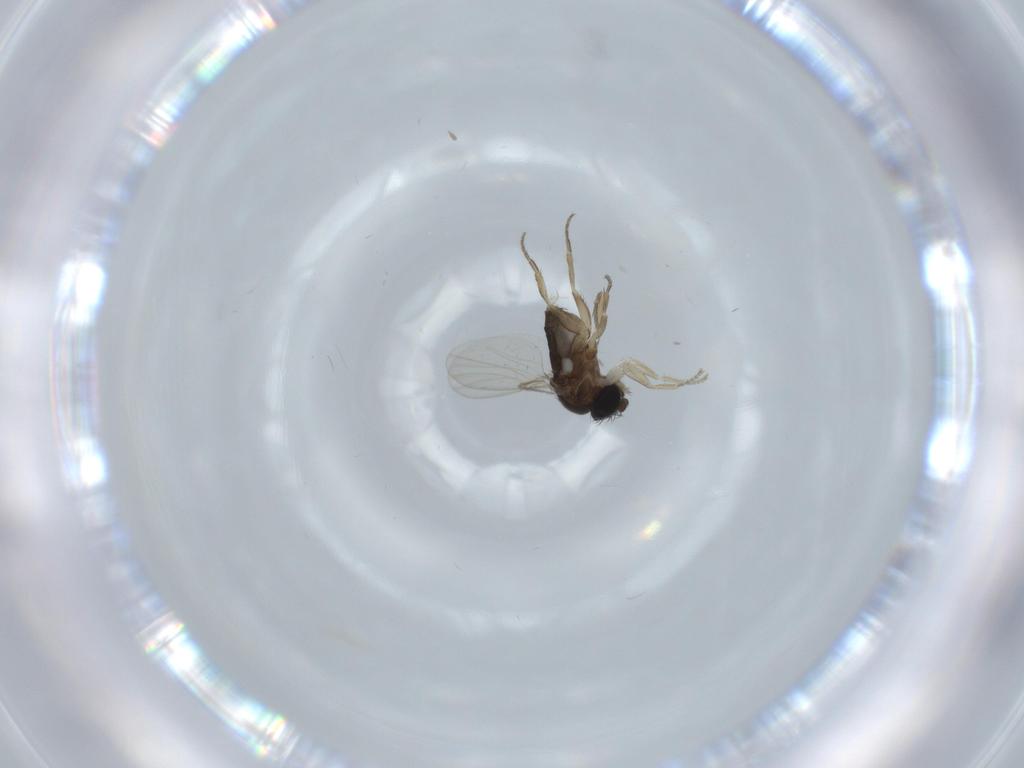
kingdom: Animalia
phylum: Arthropoda
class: Insecta
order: Diptera
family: Phoridae
